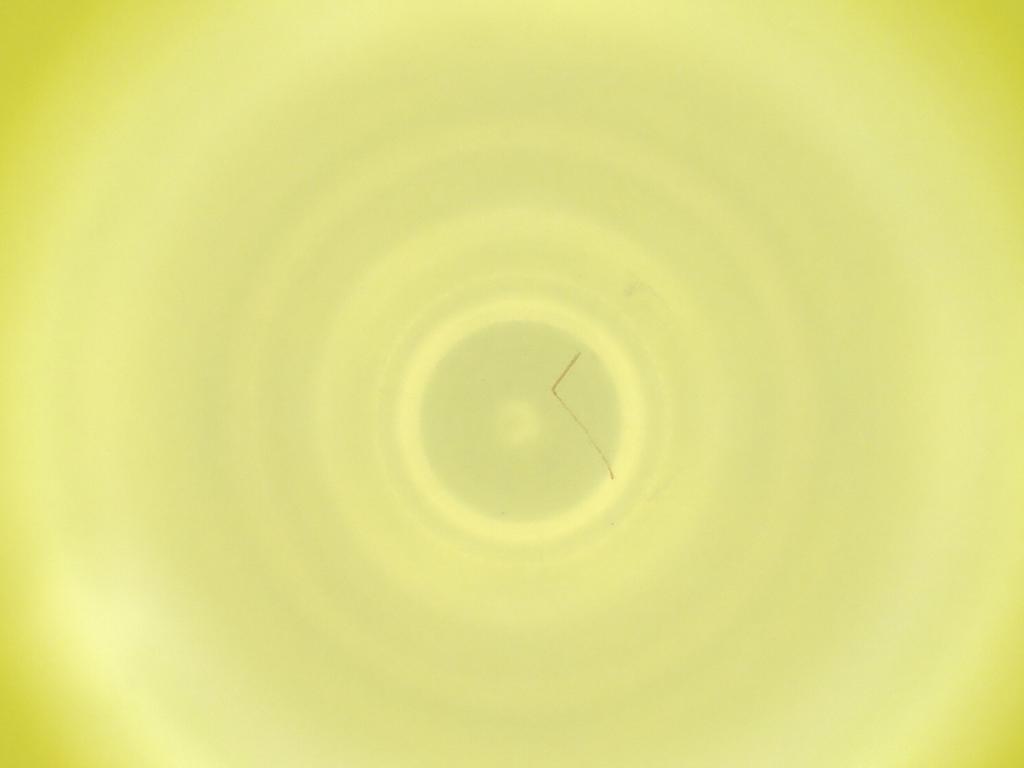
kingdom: Animalia
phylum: Arthropoda
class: Insecta
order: Diptera
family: Cecidomyiidae
